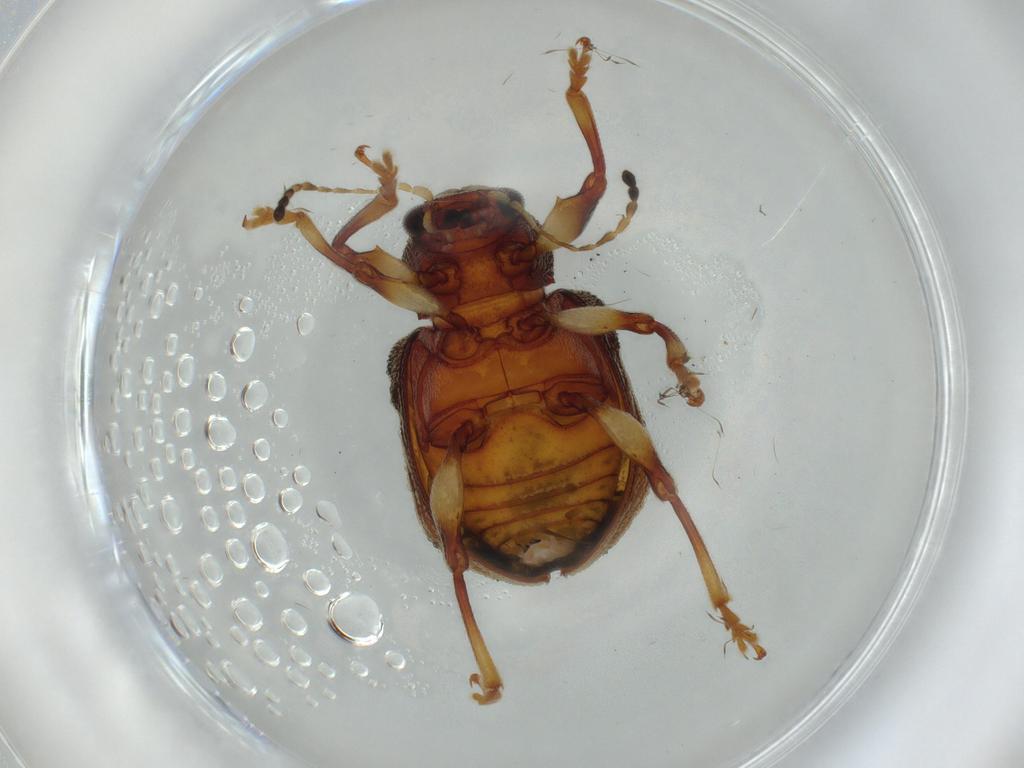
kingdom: Animalia
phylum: Arthropoda
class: Insecta
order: Coleoptera
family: Chrysomelidae
